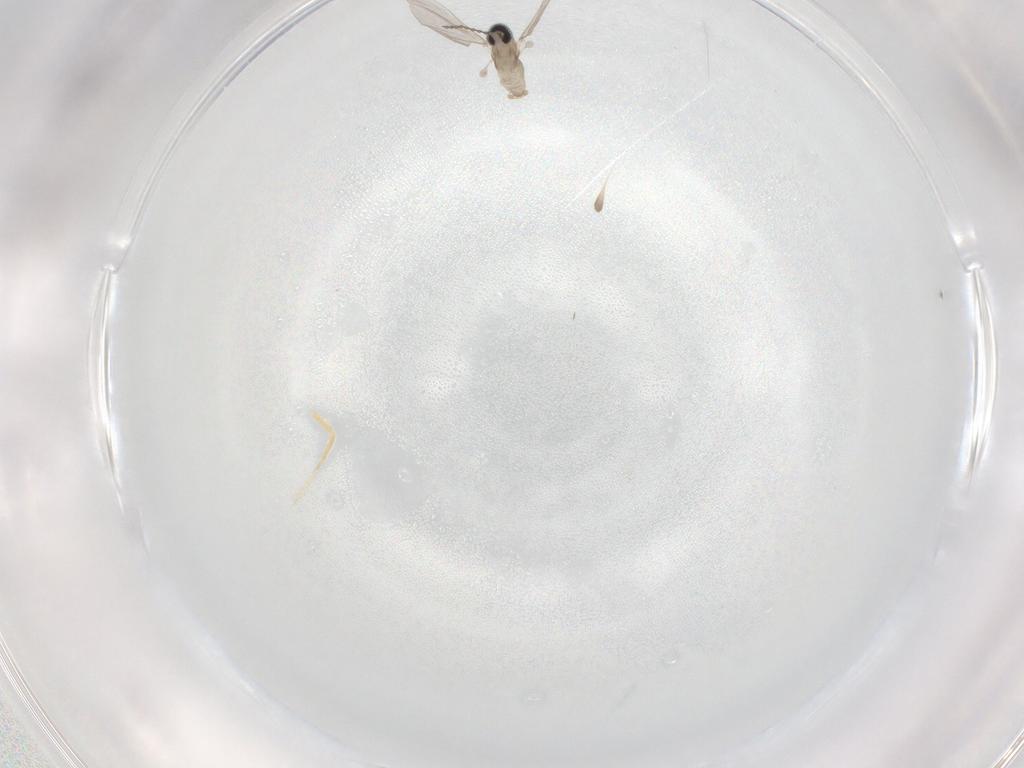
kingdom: Animalia
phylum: Arthropoda
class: Insecta
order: Diptera
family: Cecidomyiidae
